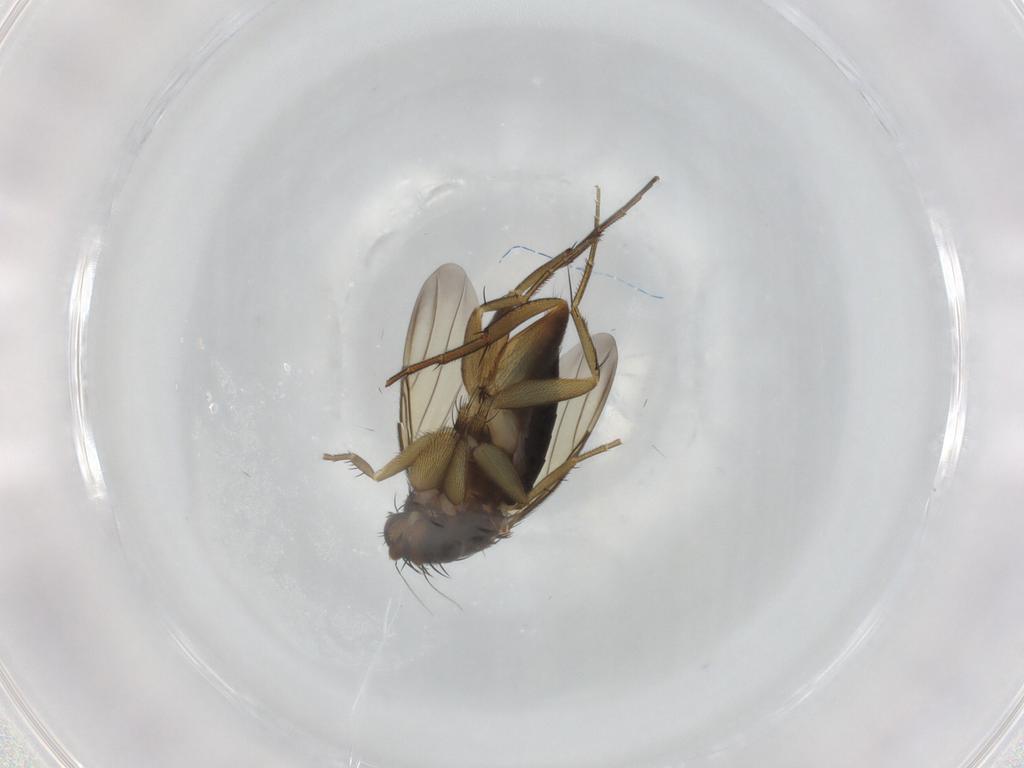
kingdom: Animalia
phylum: Arthropoda
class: Insecta
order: Diptera
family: Phoridae
